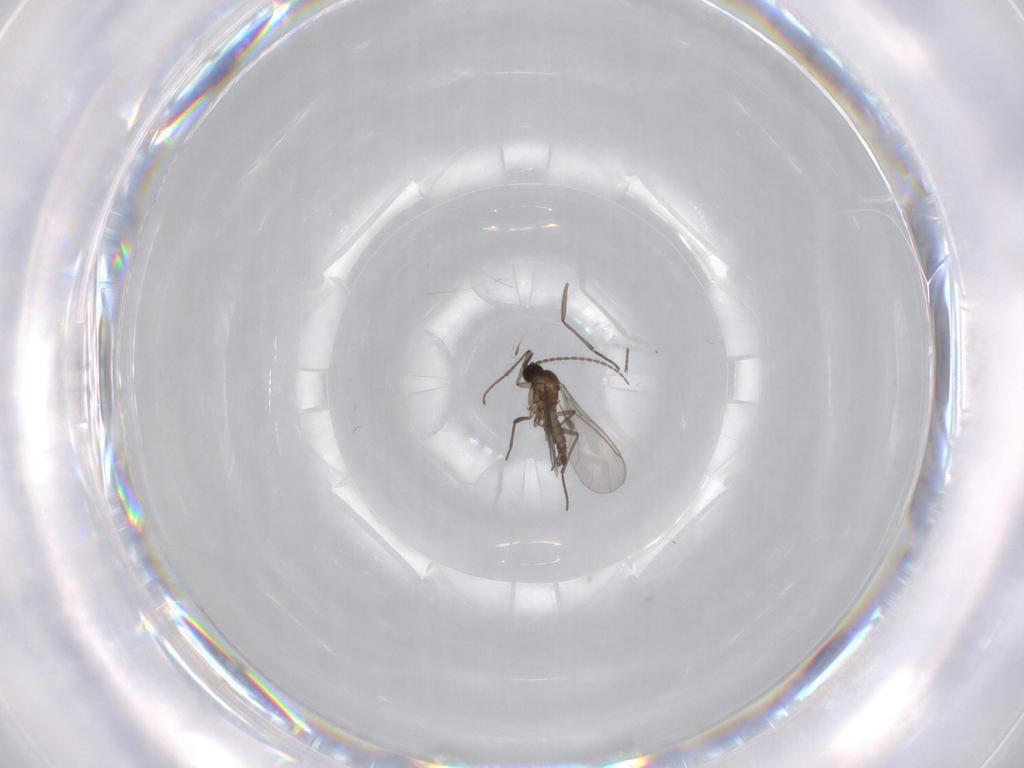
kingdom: Animalia
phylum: Arthropoda
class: Insecta
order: Diptera
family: Sciaridae
